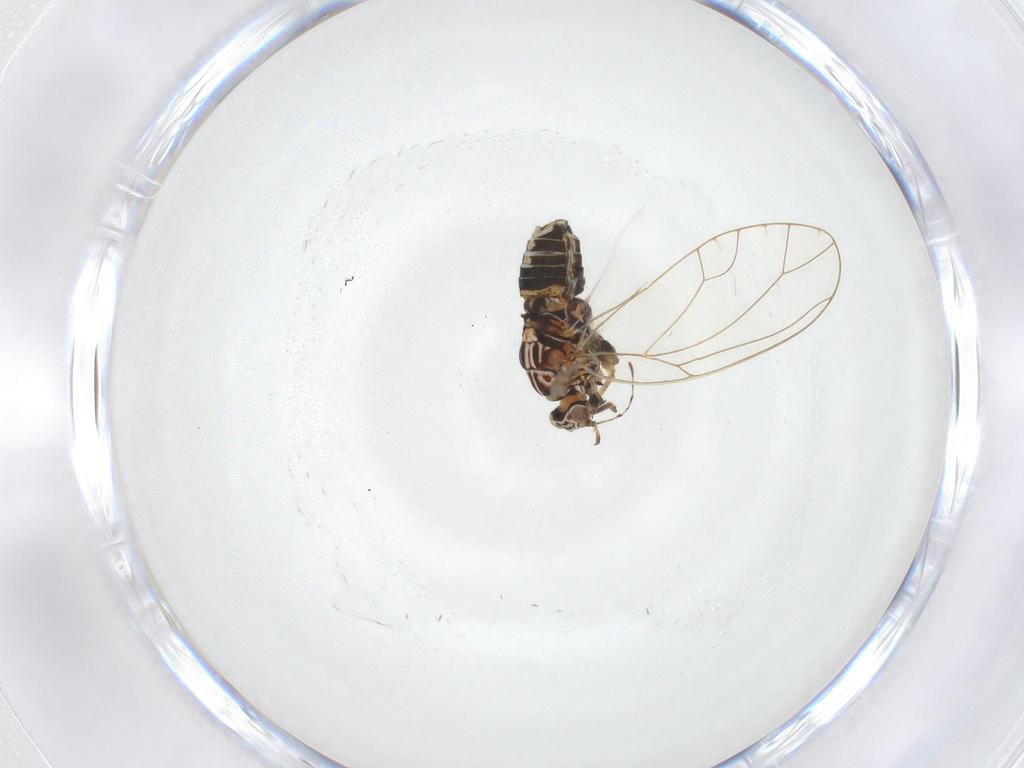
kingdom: Animalia
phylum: Arthropoda
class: Insecta
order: Hemiptera
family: Triozidae
